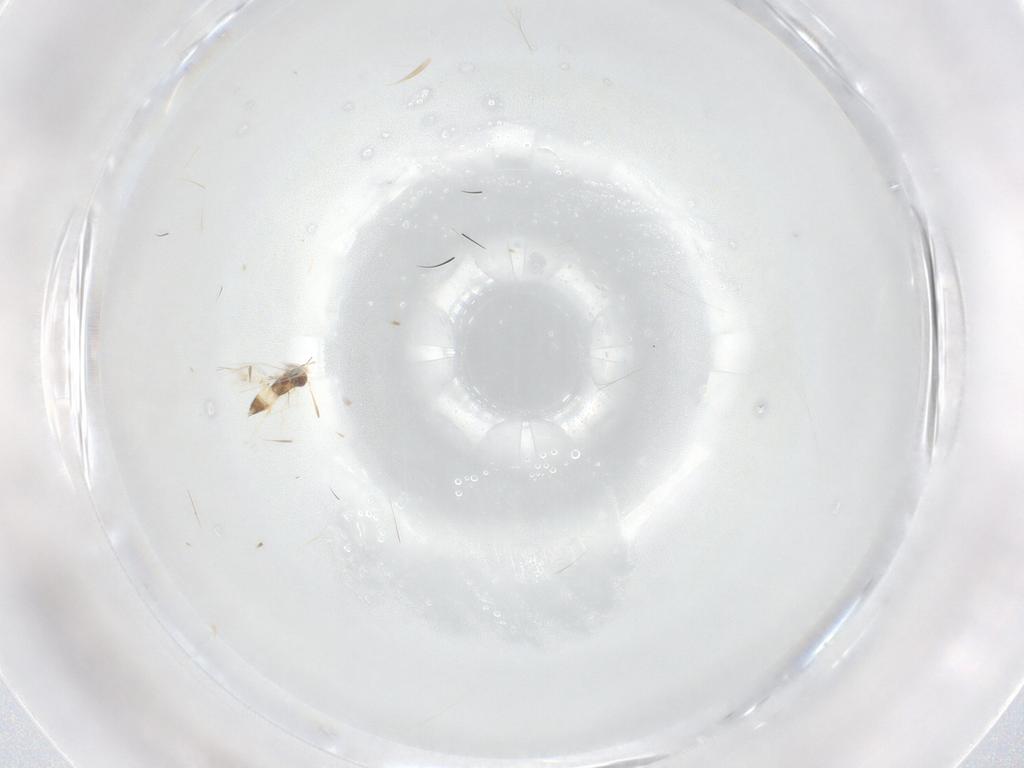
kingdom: Animalia
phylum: Arthropoda
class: Insecta
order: Hymenoptera
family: Mymaridae
